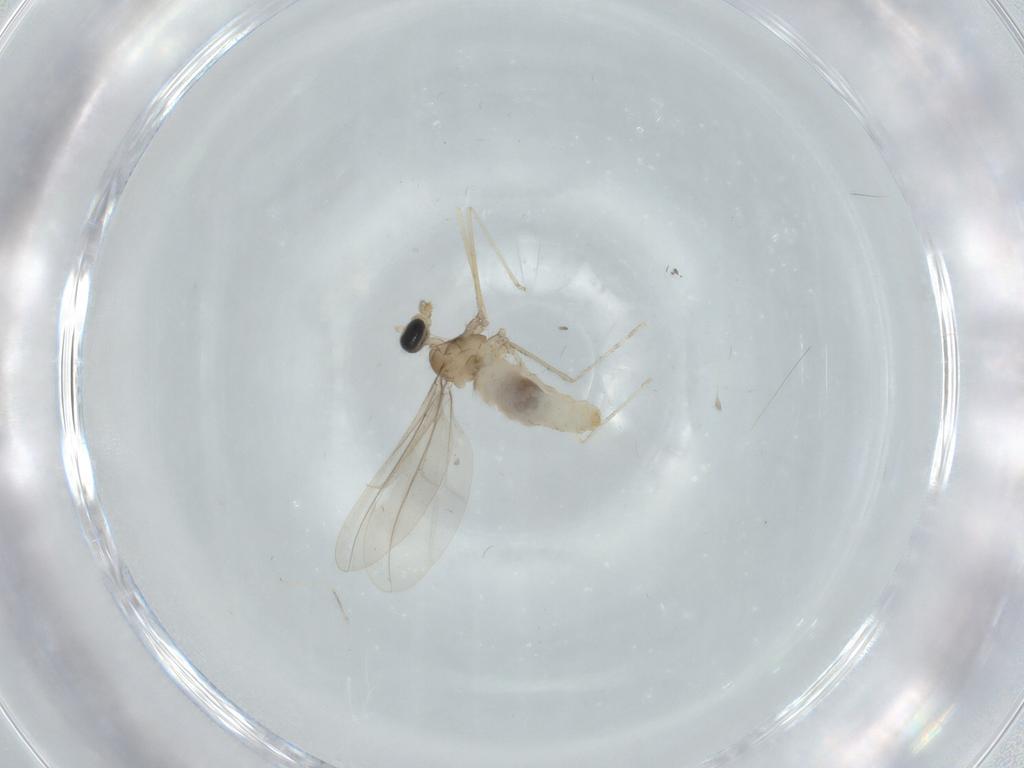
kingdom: Animalia
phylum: Arthropoda
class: Insecta
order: Diptera
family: Cecidomyiidae
